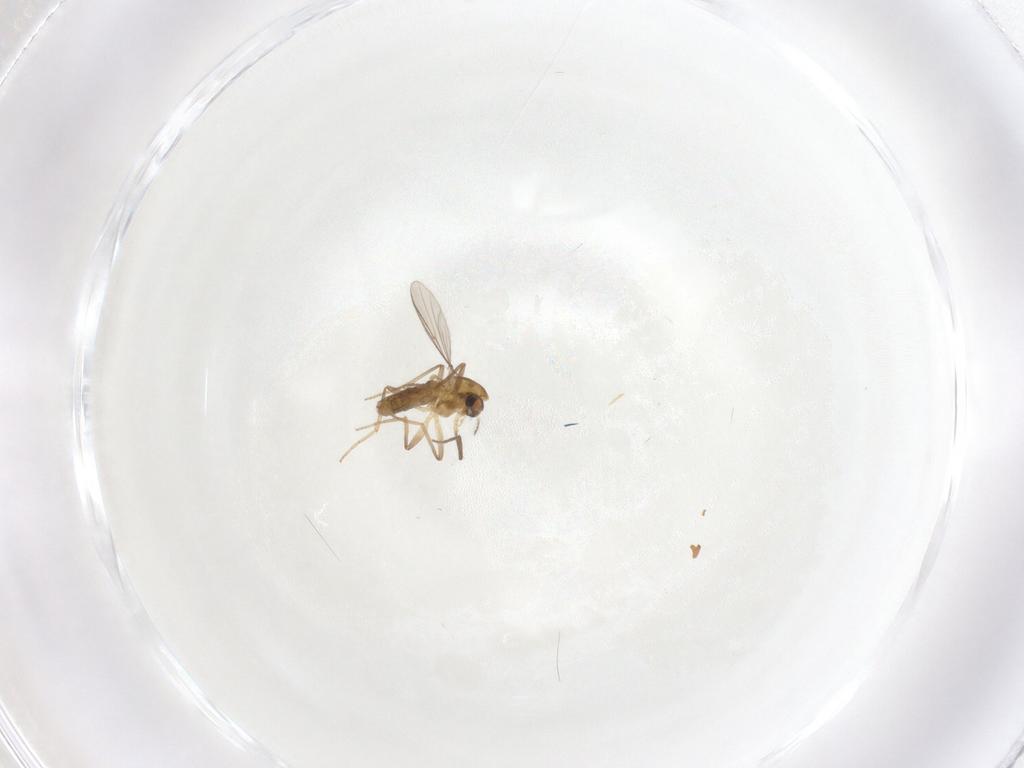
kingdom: Animalia
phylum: Arthropoda
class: Insecta
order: Diptera
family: Chironomidae
